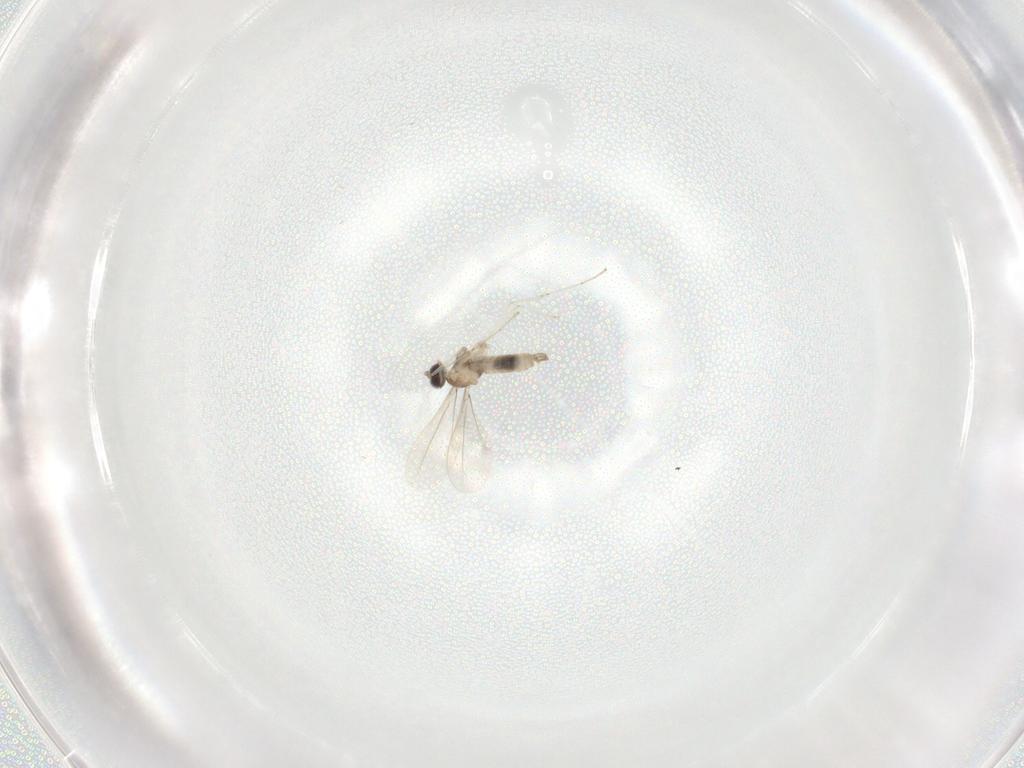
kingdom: Animalia
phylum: Arthropoda
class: Insecta
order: Diptera
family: Cecidomyiidae
